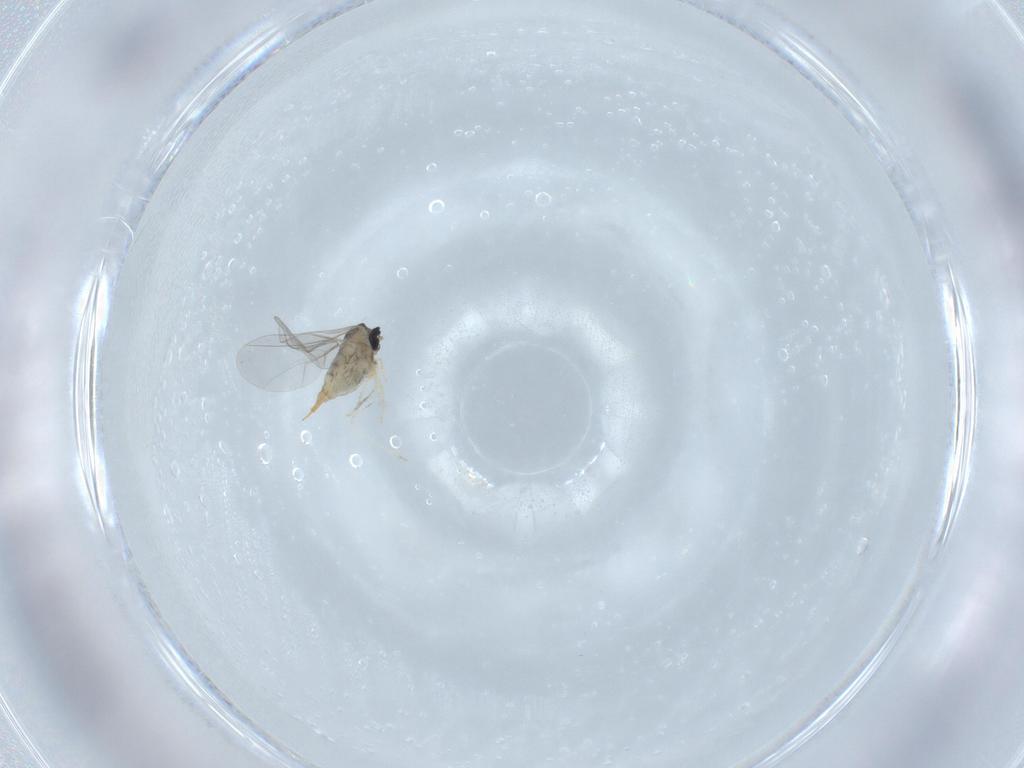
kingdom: Animalia
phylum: Arthropoda
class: Insecta
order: Diptera
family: Cecidomyiidae
